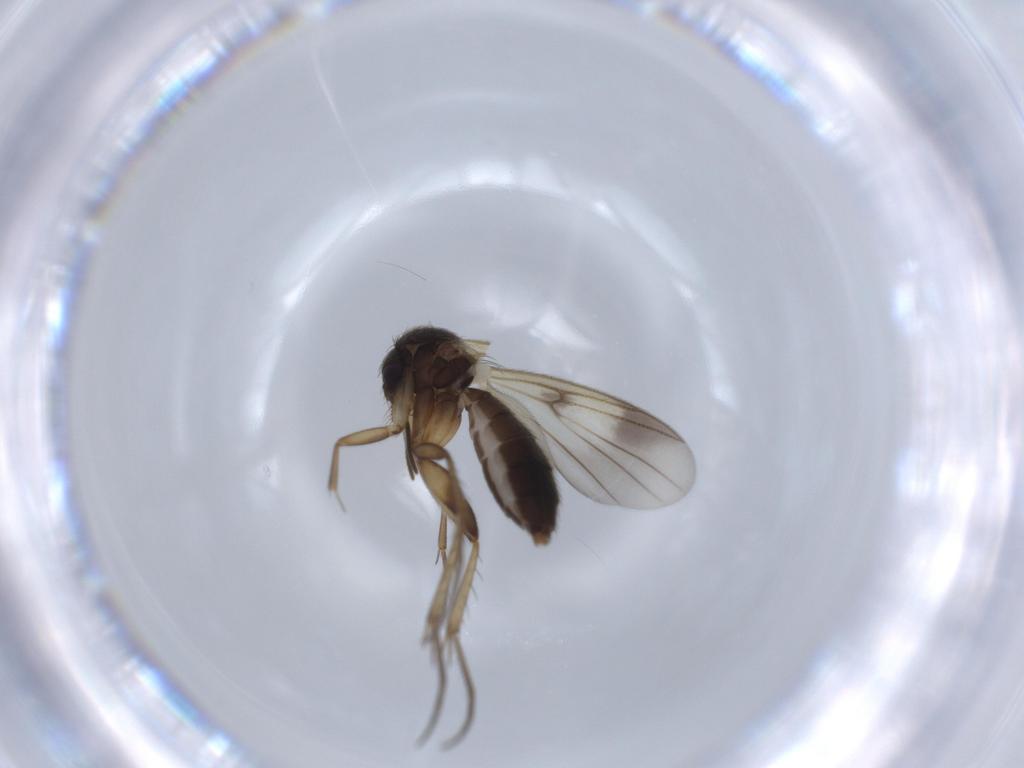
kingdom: Animalia
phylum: Arthropoda
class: Insecta
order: Diptera
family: Mycetophilidae
